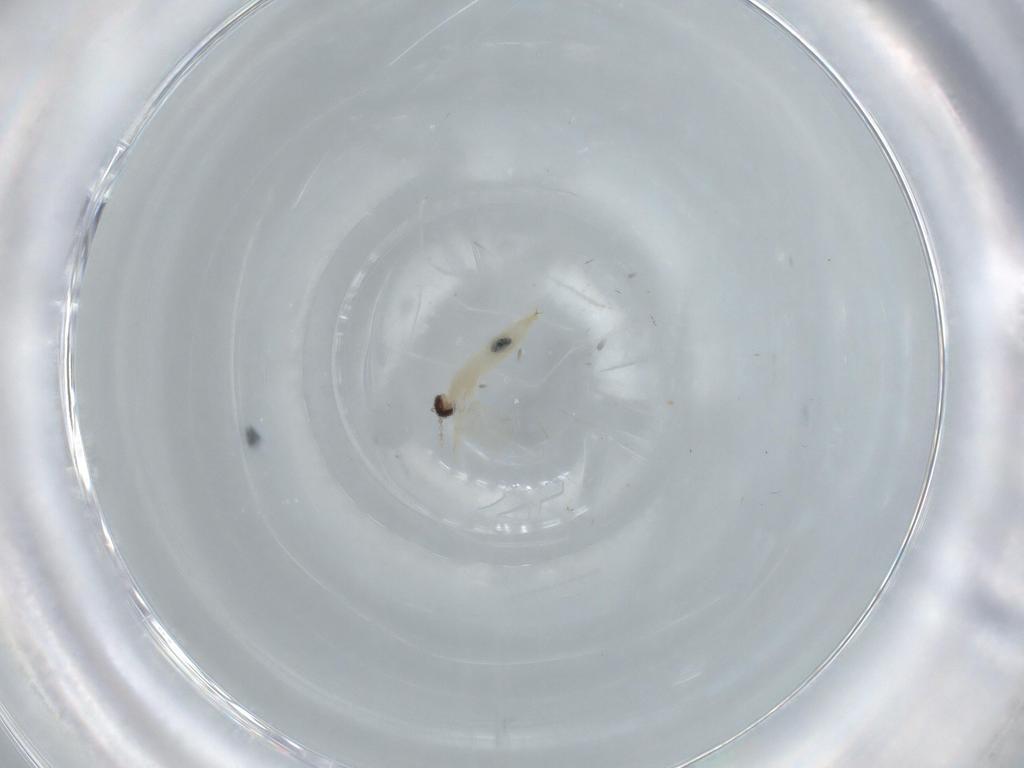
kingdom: Animalia
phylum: Arthropoda
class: Insecta
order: Diptera
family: Cecidomyiidae
